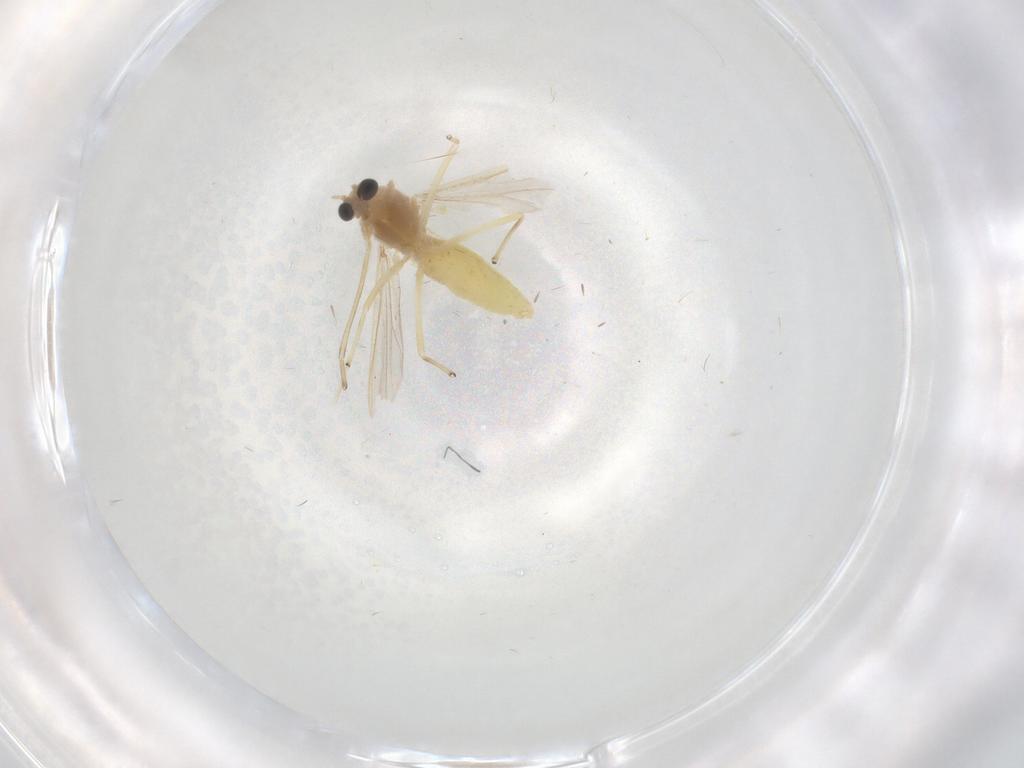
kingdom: Animalia
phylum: Arthropoda
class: Insecta
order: Diptera
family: Chironomidae
